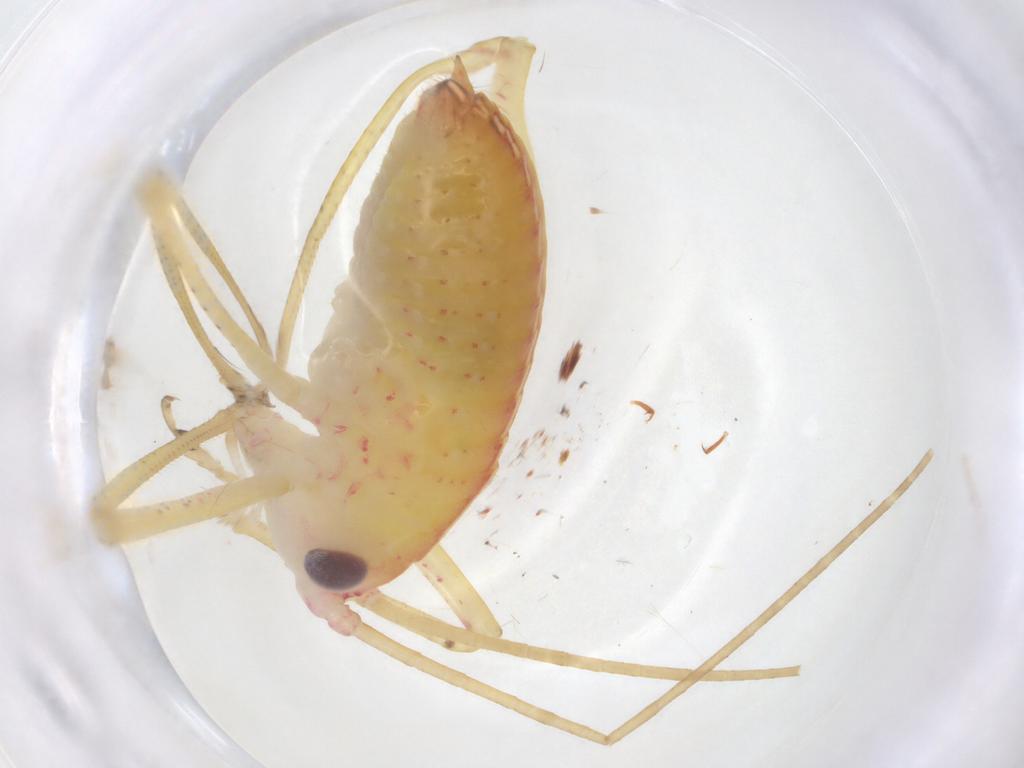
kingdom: Animalia
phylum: Arthropoda
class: Insecta
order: Orthoptera
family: Tettigoniidae
